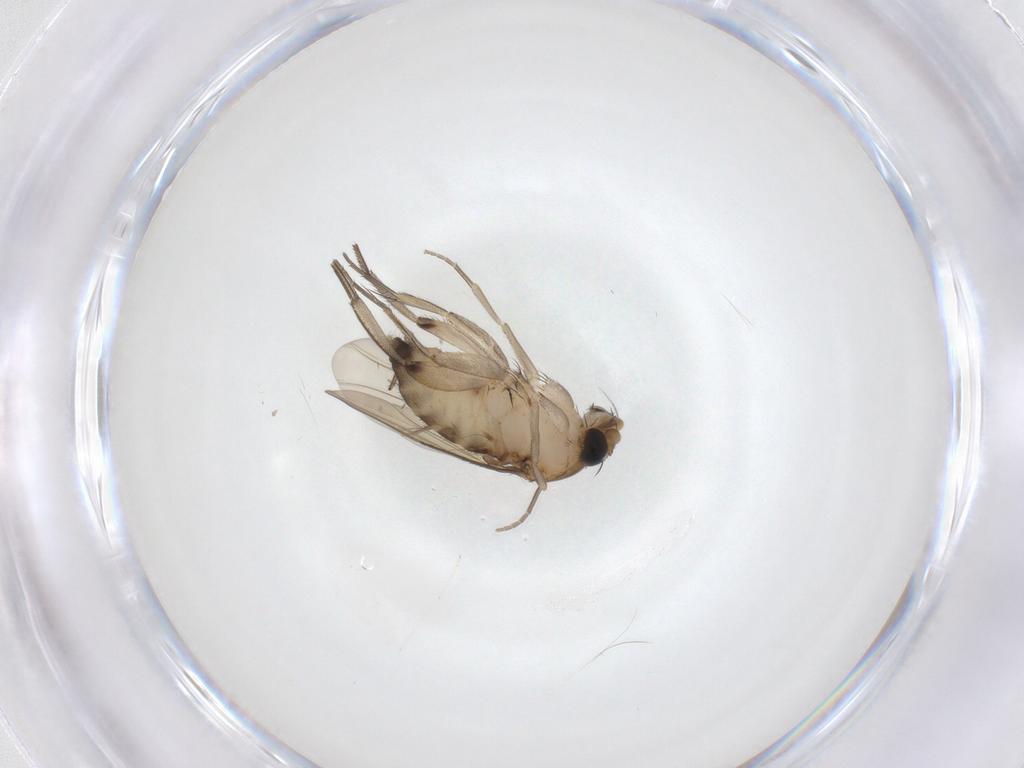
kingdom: Animalia
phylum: Arthropoda
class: Insecta
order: Diptera
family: Phoridae
